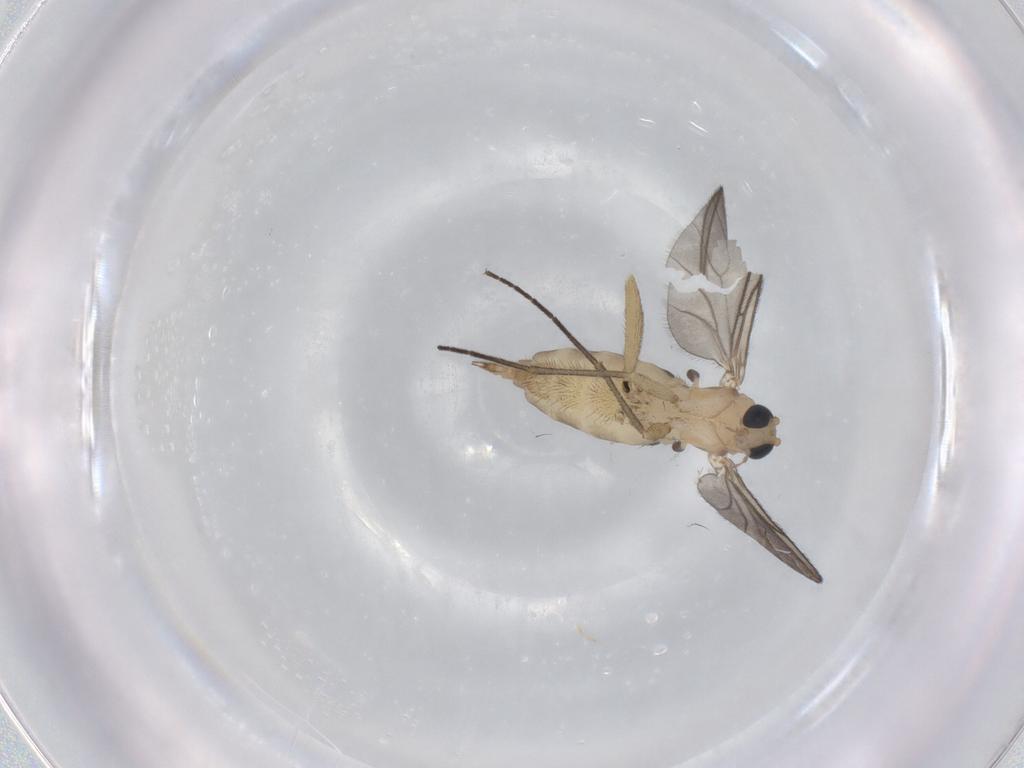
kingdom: Animalia
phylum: Arthropoda
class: Insecta
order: Diptera
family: Sciaridae
